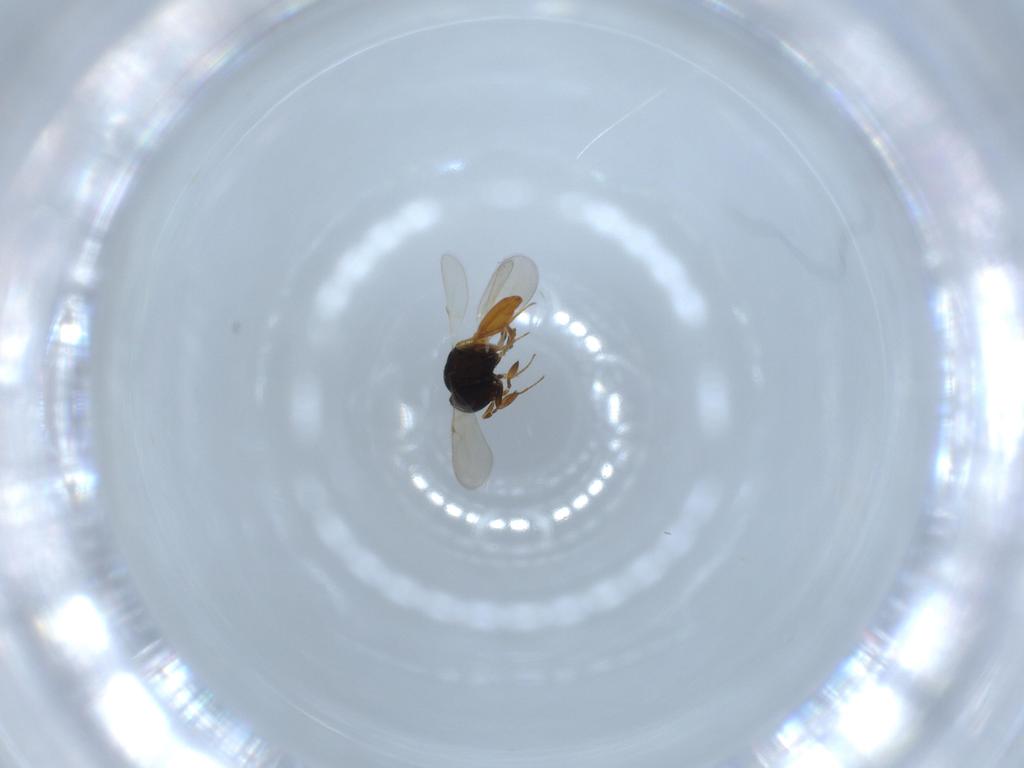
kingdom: Animalia
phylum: Arthropoda
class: Insecta
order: Hymenoptera
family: Scelionidae
